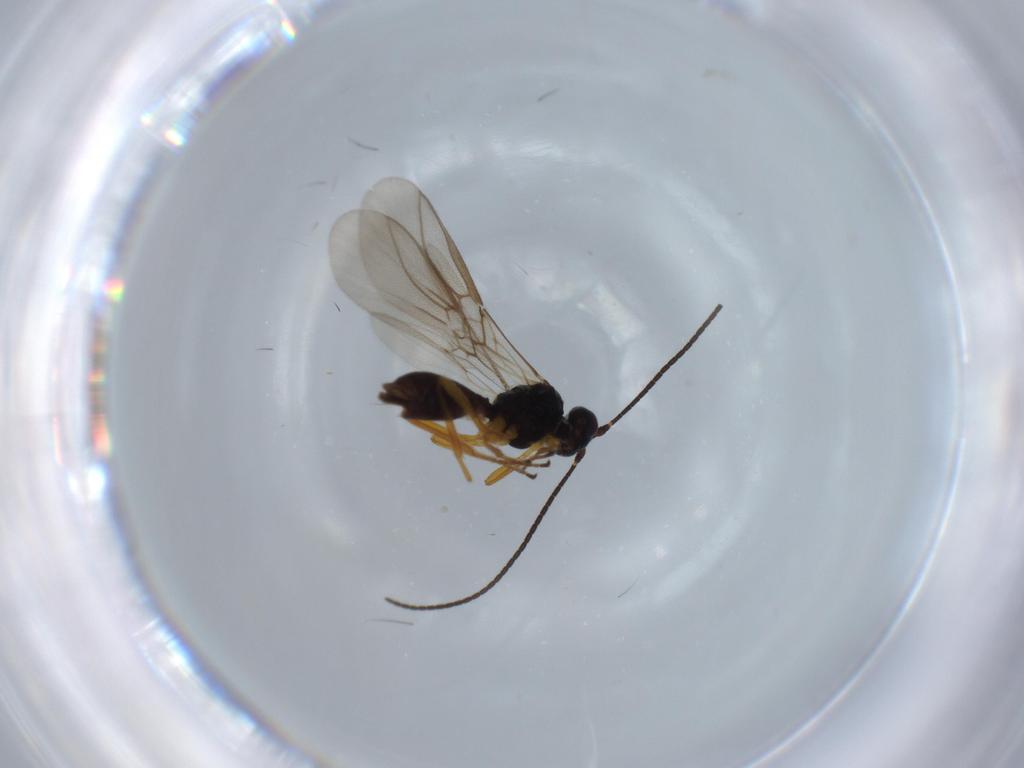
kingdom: Animalia
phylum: Arthropoda
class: Insecta
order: Hymenoptera
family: Braconidae
